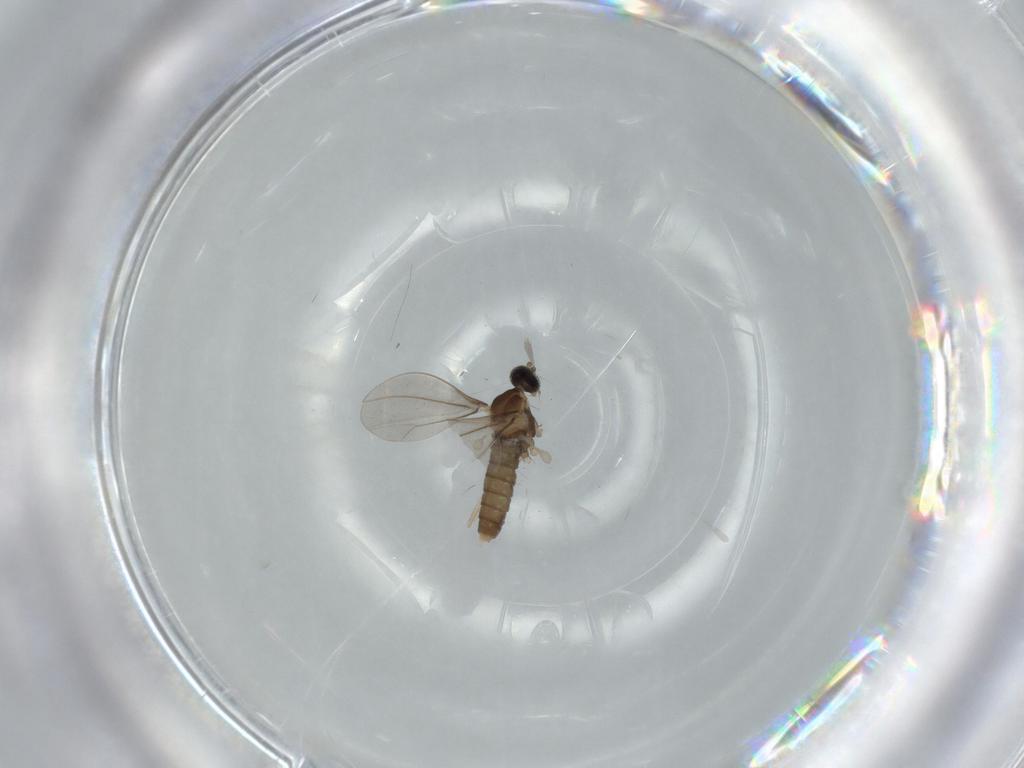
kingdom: Animalia
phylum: Arthropoda
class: Insecta
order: Diptera
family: Cecidomyiidae
